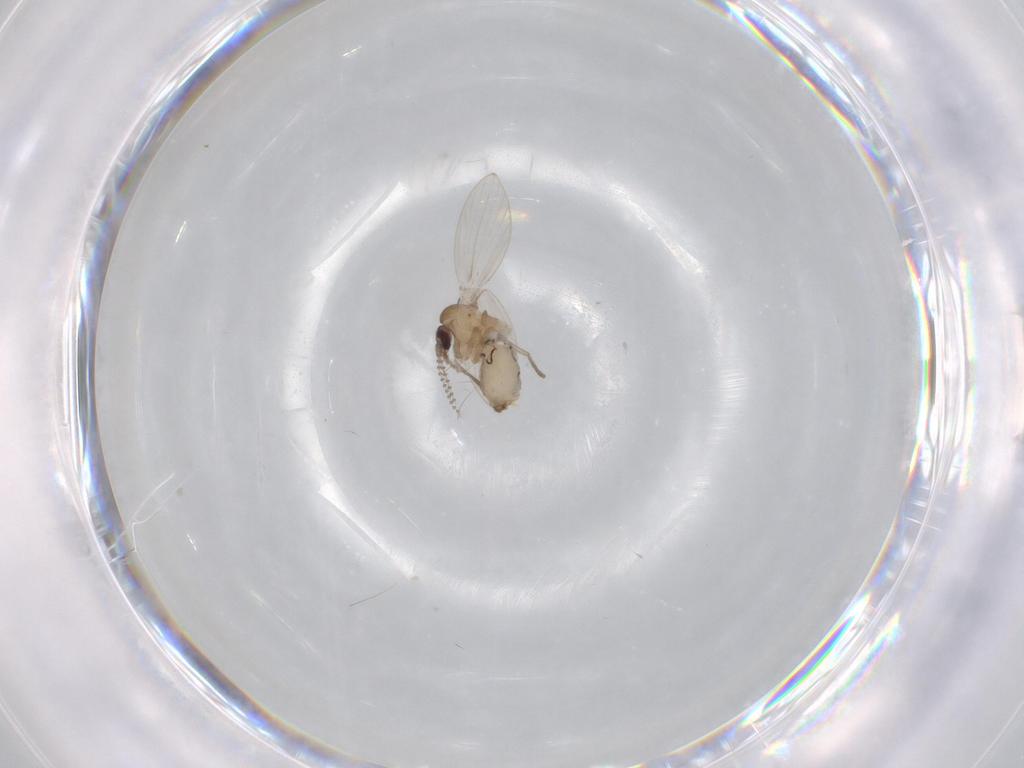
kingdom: Animalia
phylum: Arthropoda
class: Insecta
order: Diptera
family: Psychodidae
